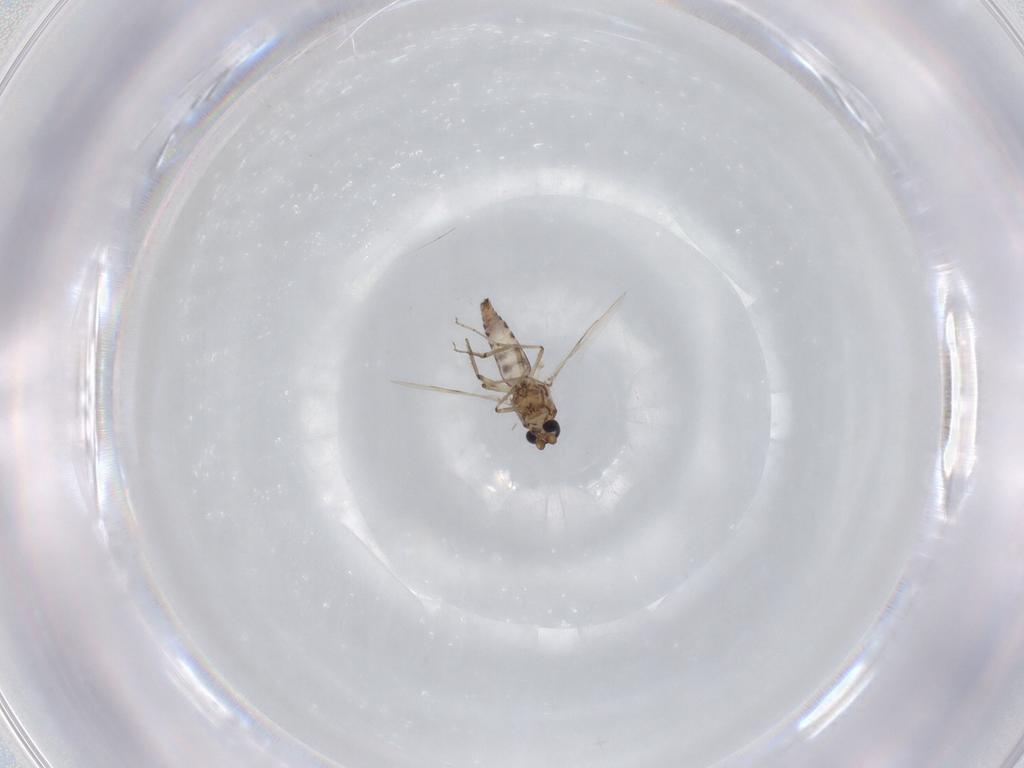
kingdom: Animalia
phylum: Arthropoda
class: Insecta
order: Diptera
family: Ceratopogonidae
